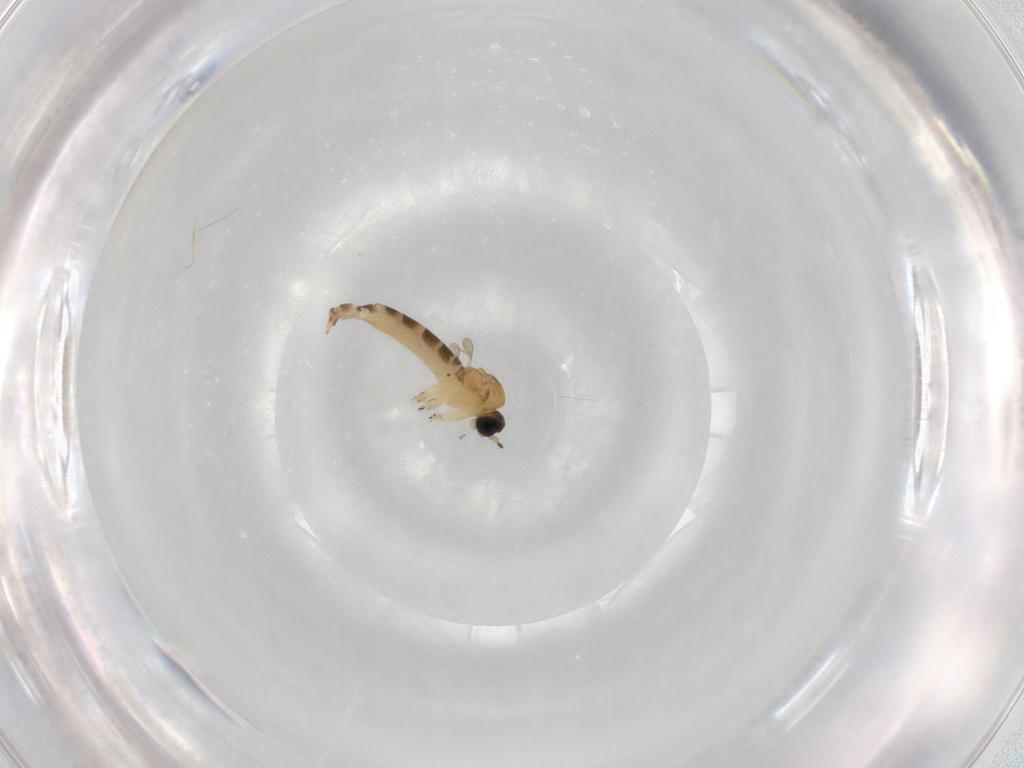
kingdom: Animalia
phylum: Arthropoda
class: Insecta
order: Diptera
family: Sciaridae
